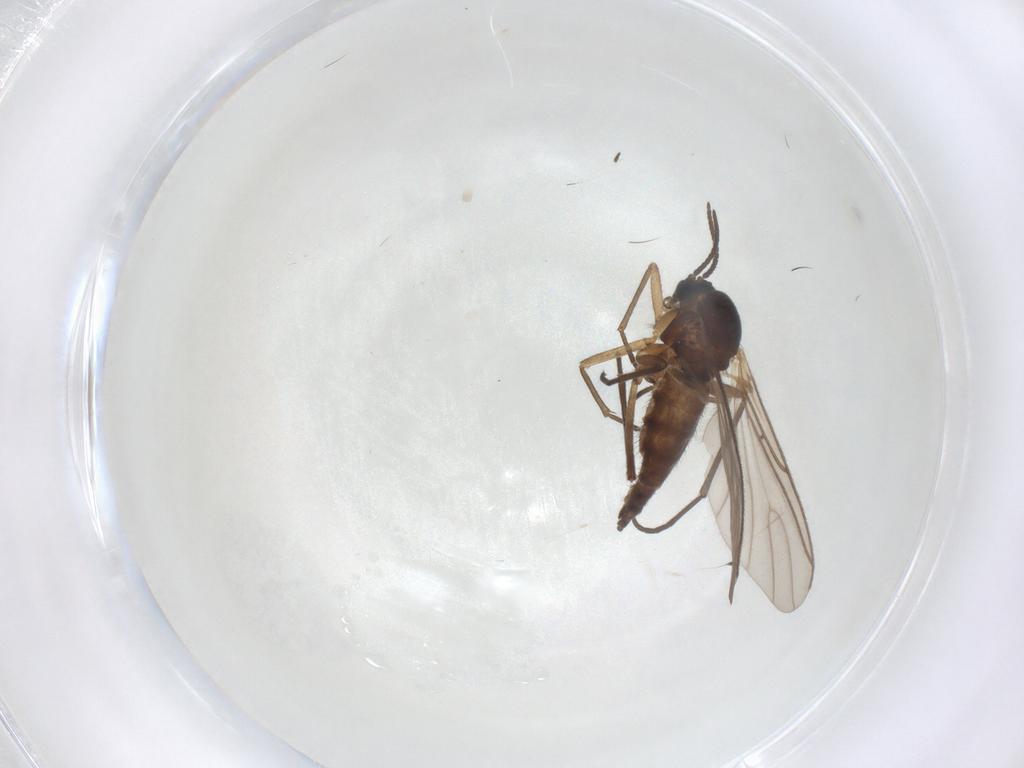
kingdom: Animalia
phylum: Arthropoda
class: Insecta
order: Diptera
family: Sciaridae
